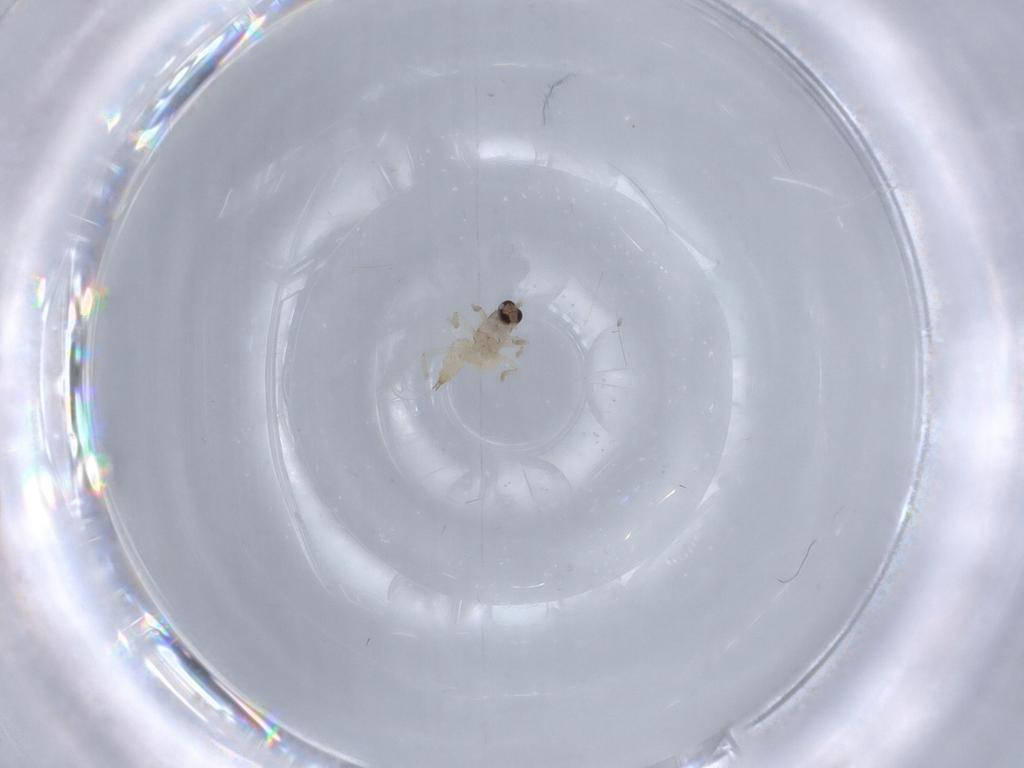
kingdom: Animalia
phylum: Arthropoda
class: Insecta
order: Diptera
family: Cecidomyiidae
